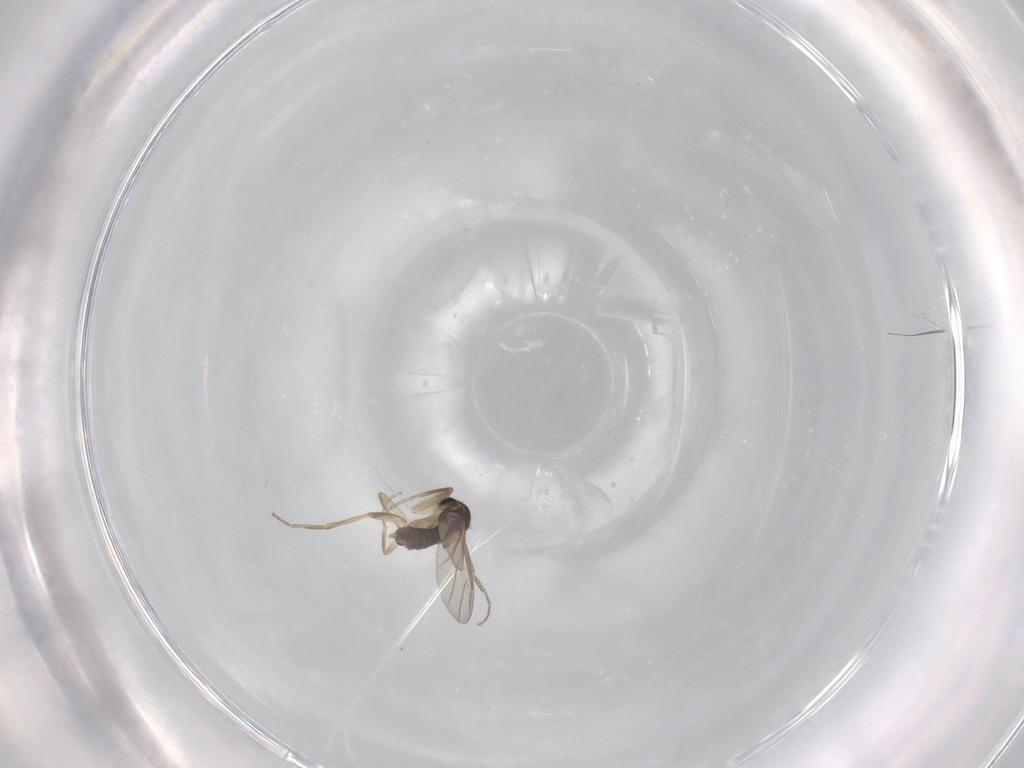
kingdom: Animalia
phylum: Arthropoda
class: Insecta
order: Diptera
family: Phoridae
